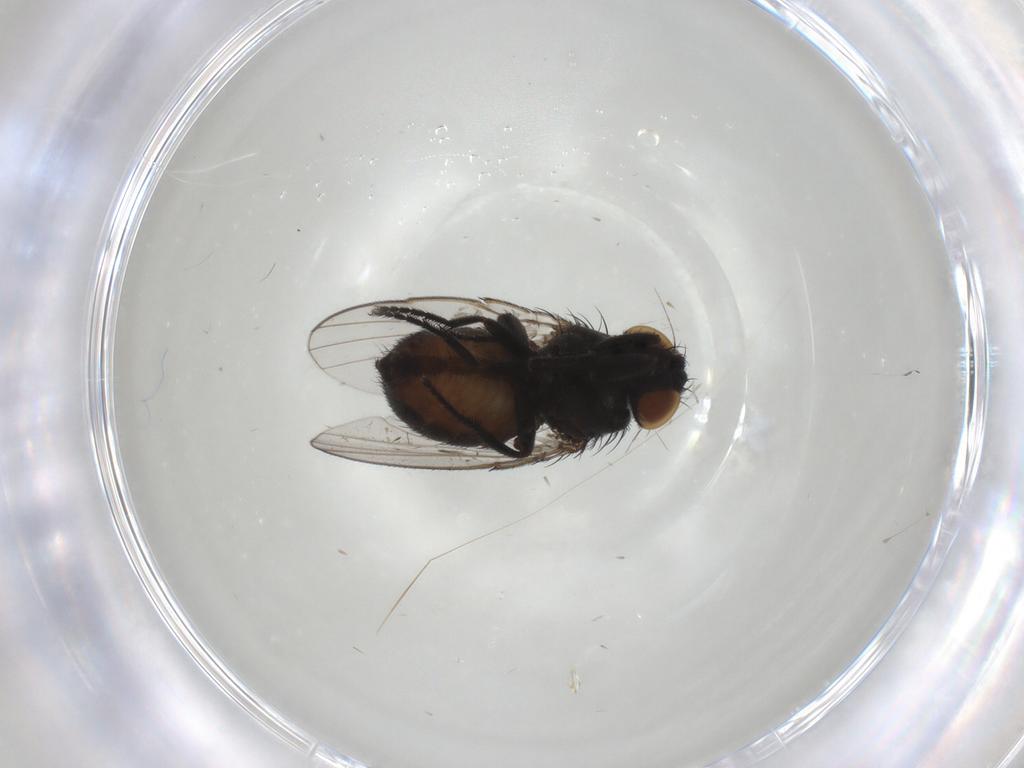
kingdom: Animalia
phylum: Arthropoda
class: Insecta
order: Diptera
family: Milichiidae
